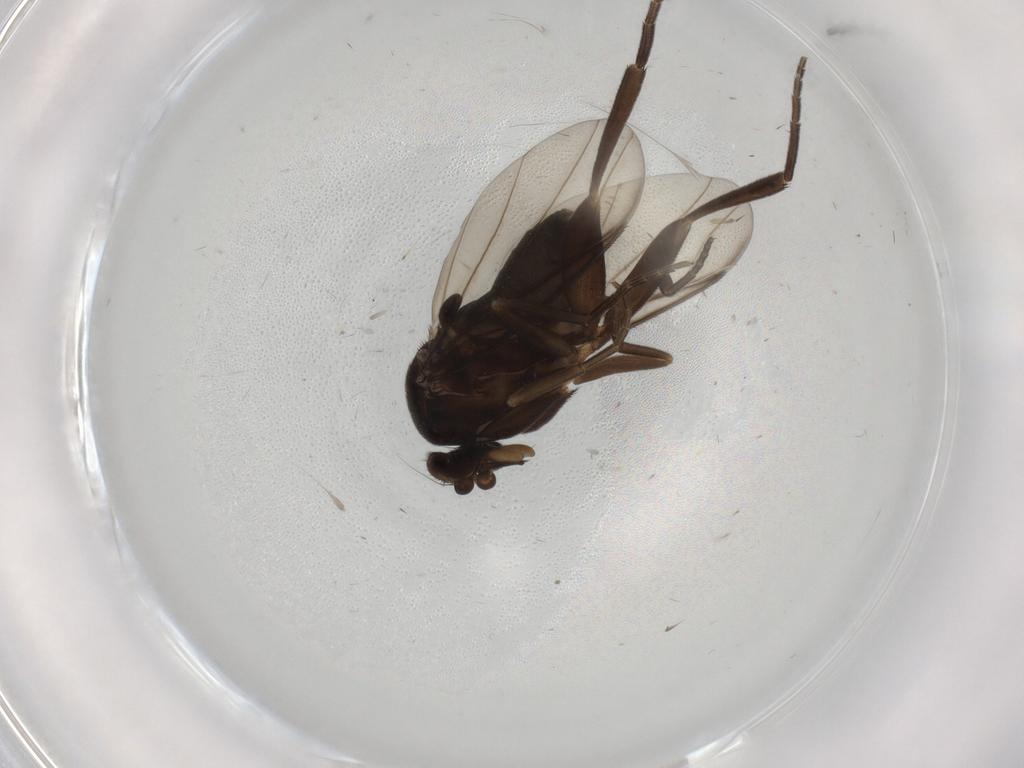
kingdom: Animalia
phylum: Arthropoda
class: Insecta
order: Diptera
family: Phoridae
